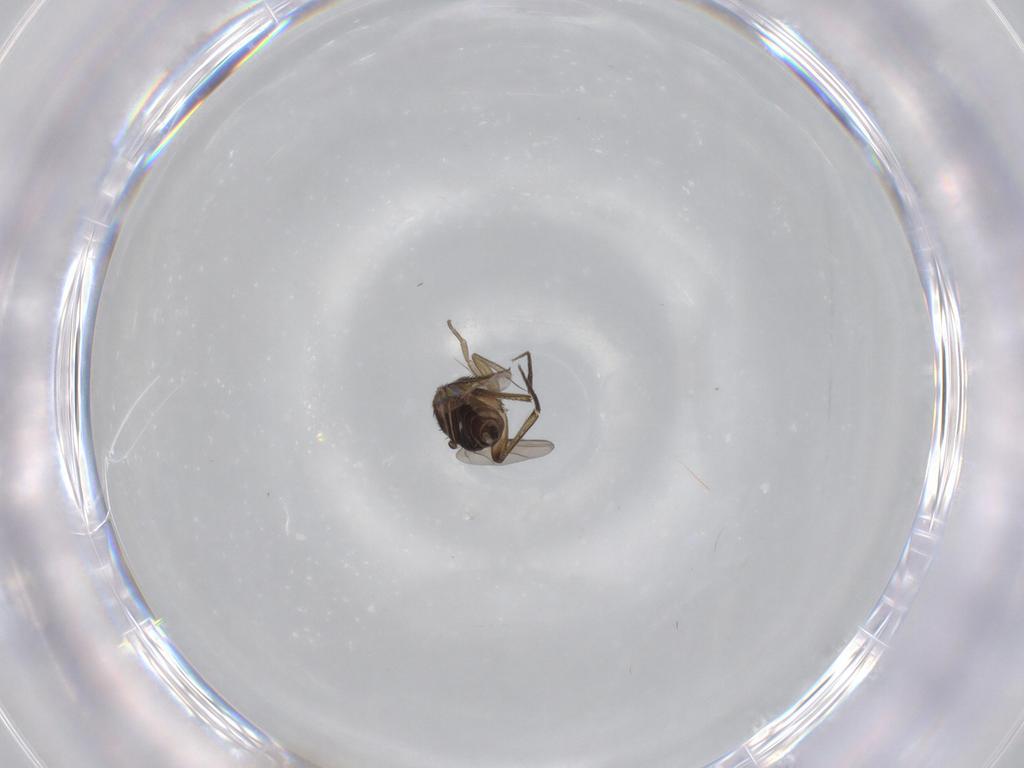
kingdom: Animalia
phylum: Arthropoda
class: Insecta
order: Diptera
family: Phoridae
